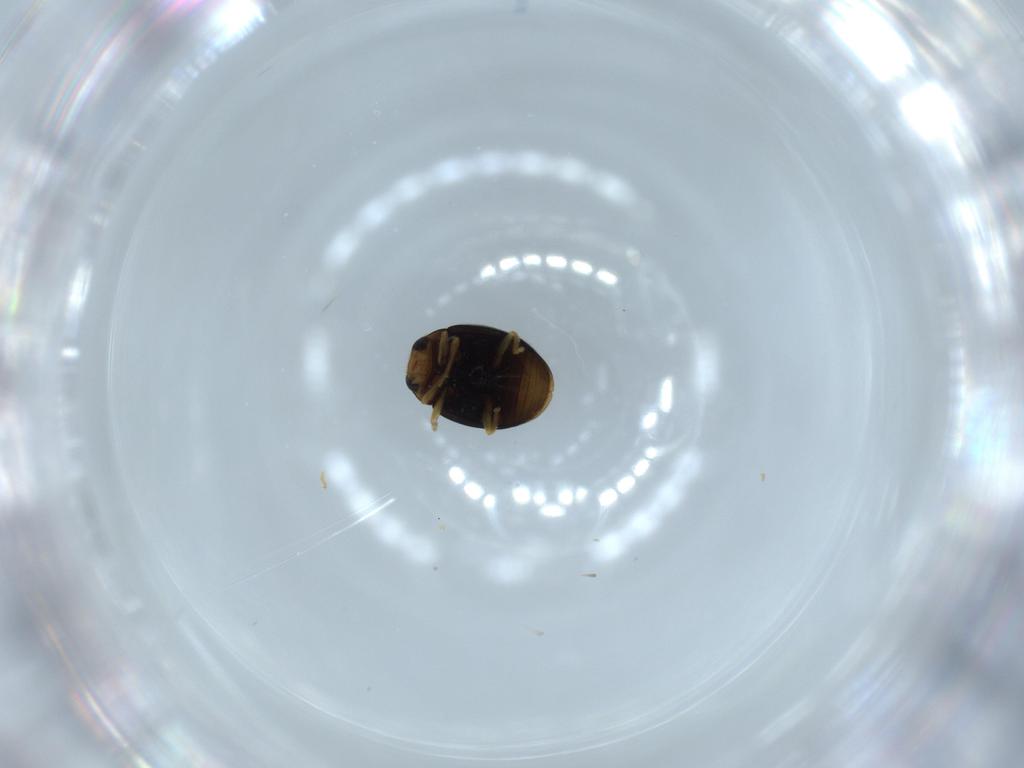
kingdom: Animalia
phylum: Arthropoda
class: Insecta
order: Coleoptera
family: Coccinellidae
